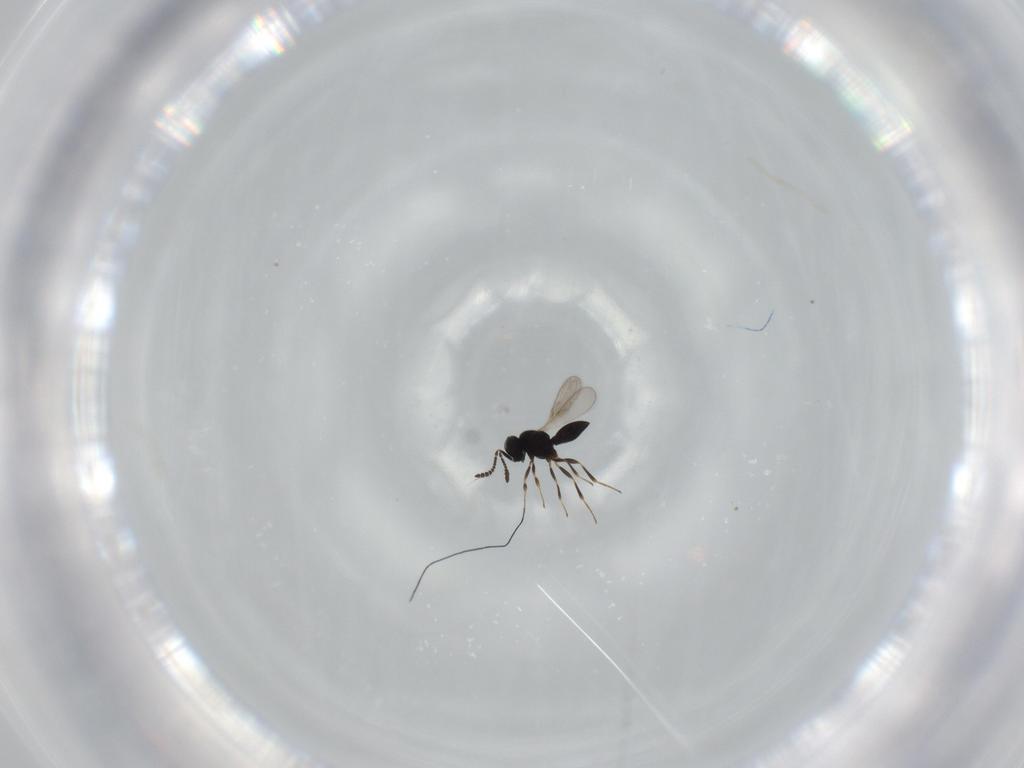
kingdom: Animalia
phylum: Arthropoda
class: Insecta
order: Hymenoptera
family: Scelionidae
